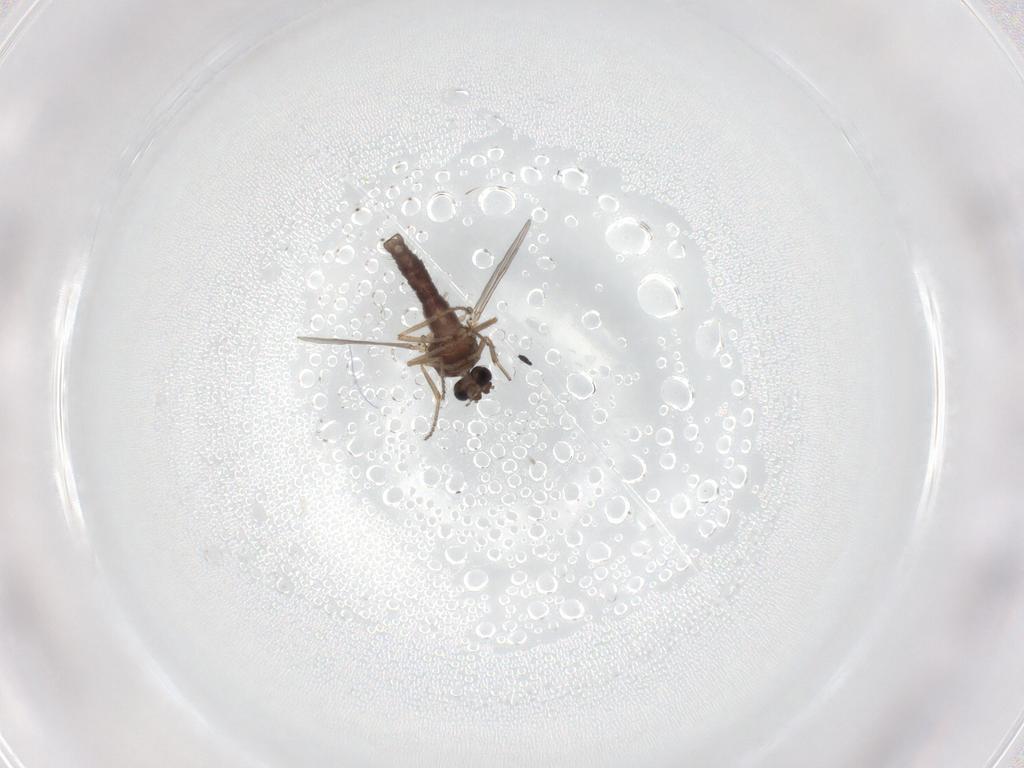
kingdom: Animalia
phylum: Arthropoda
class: Insecta
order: Diptera
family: Ceratopogonidae
